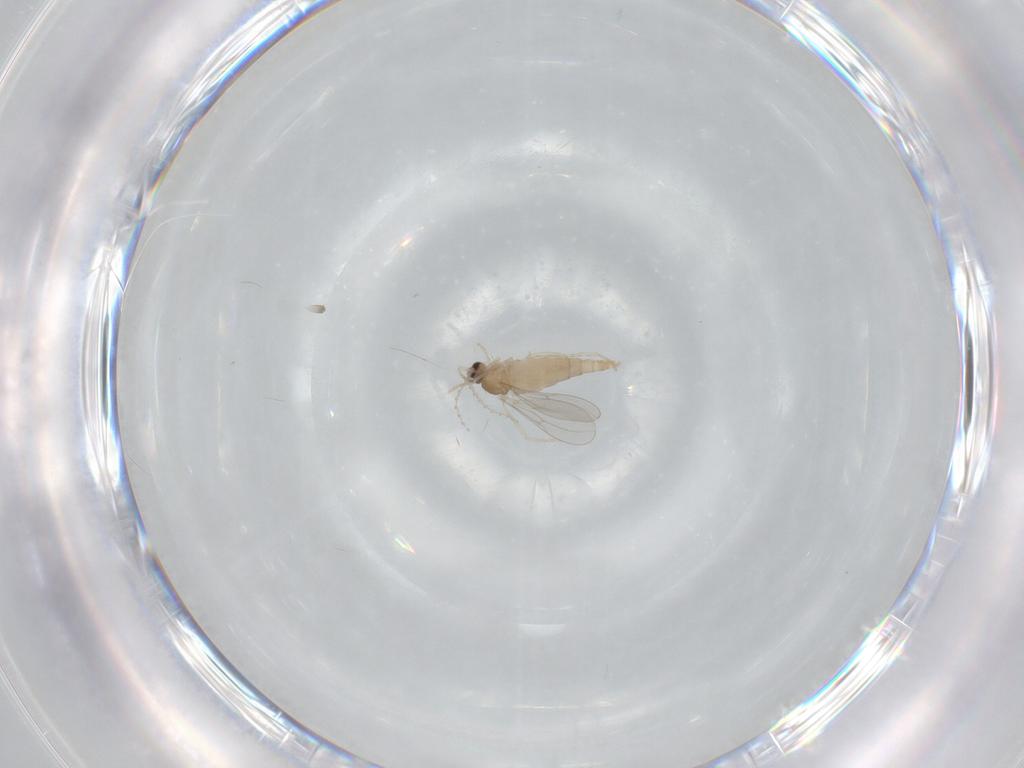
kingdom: Animalia
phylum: Arthropoda
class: Insecta
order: Diptera
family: Cecidomyiidae
